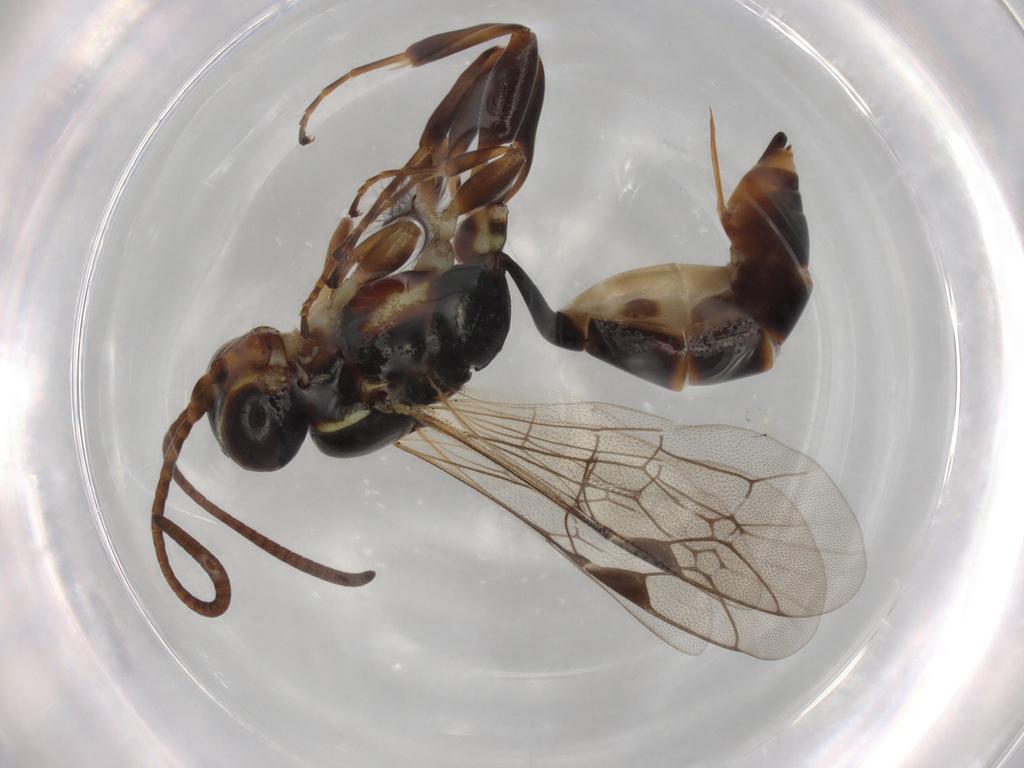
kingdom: Animalia
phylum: Arthropoda
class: Insecta
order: Hymenoptera
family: Ichneumonidae
